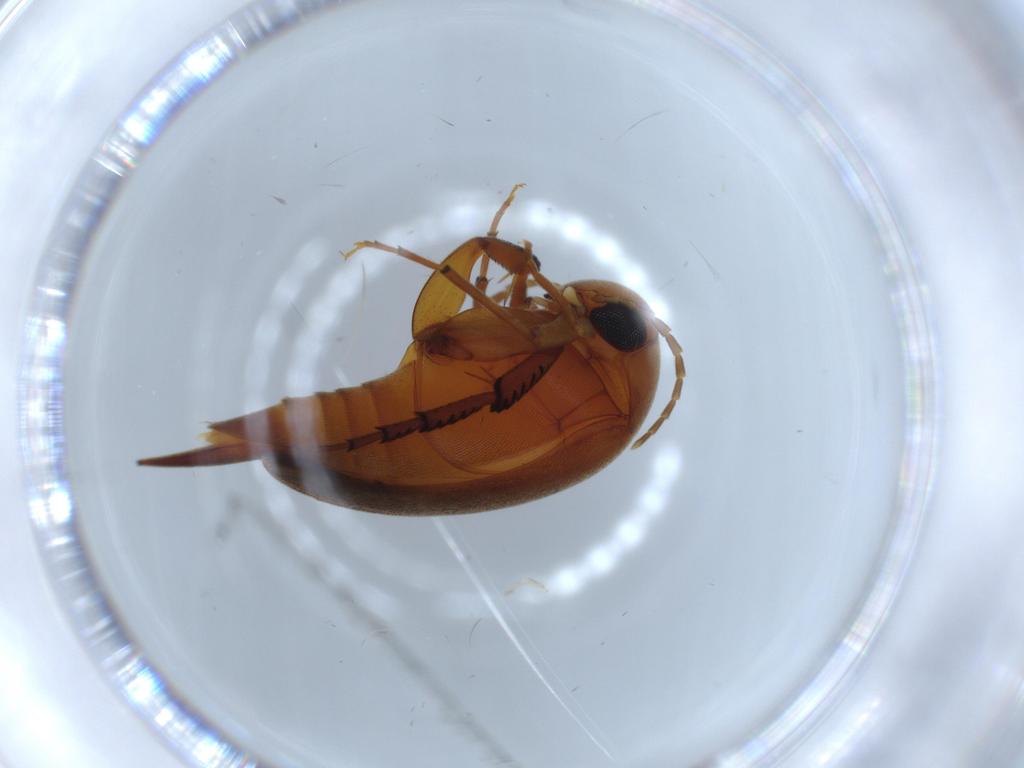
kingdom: Animalia
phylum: Arthropoda
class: Insecta
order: Coleoptera
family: Mordellidae
